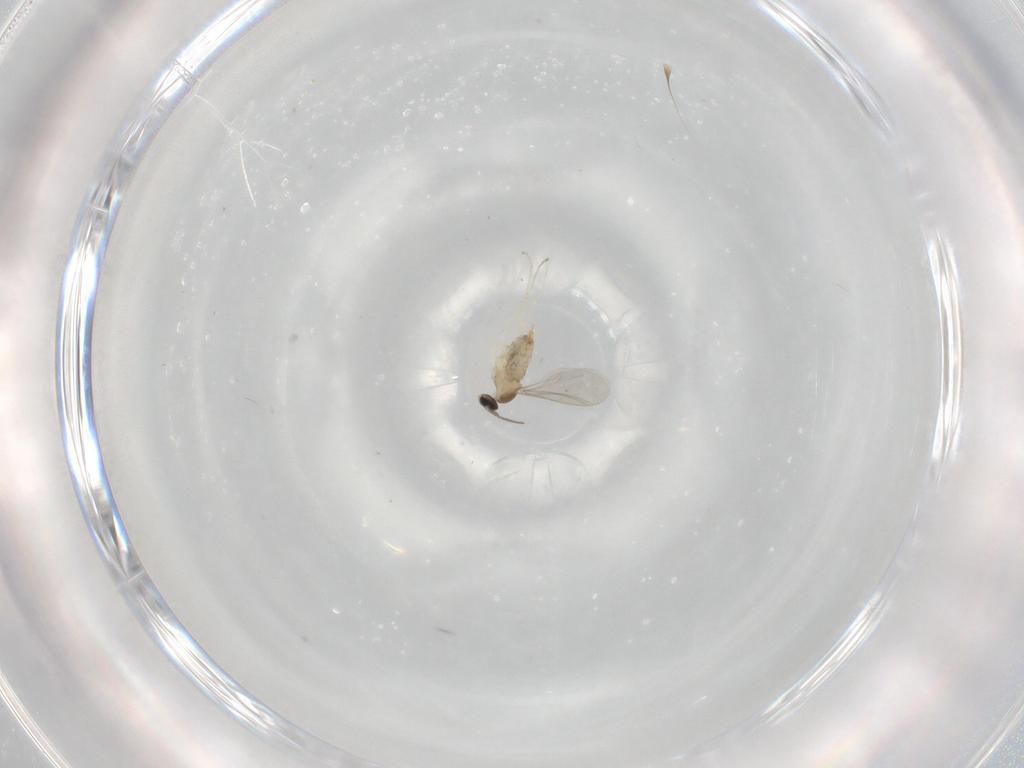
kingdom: Animalia
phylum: Arthropoda
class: Insecta
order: Diptera
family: Cecidomyiidae
